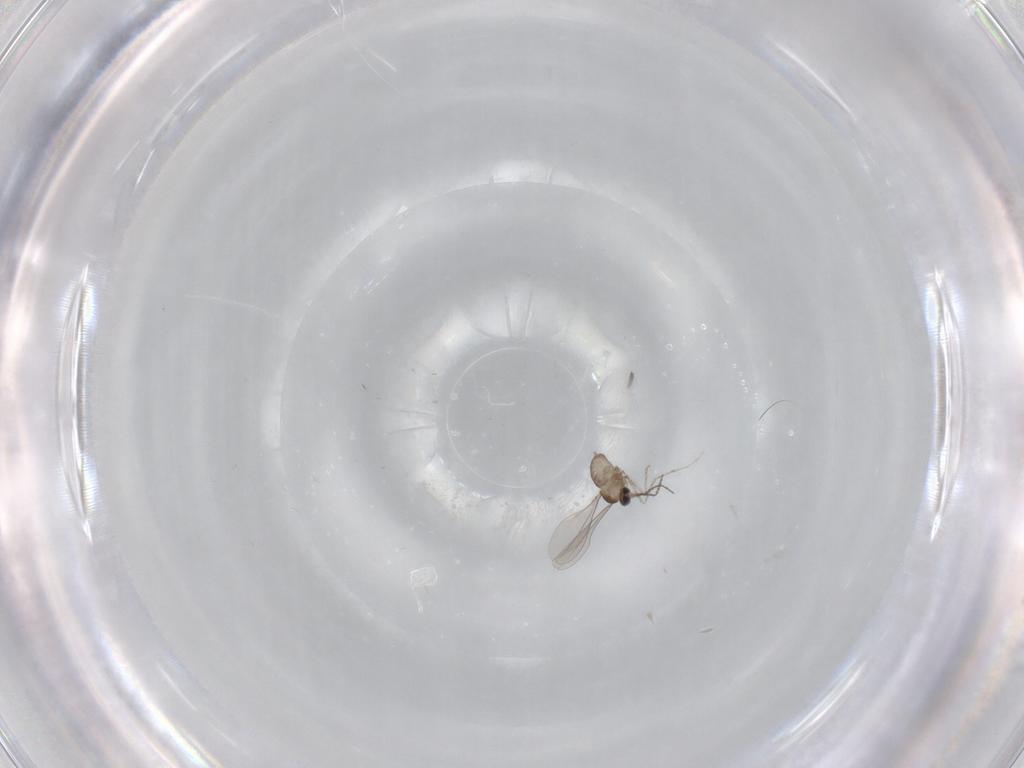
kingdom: Animalia
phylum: Arthropoda
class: Insecta
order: Diptera
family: Cecidomyiidae
